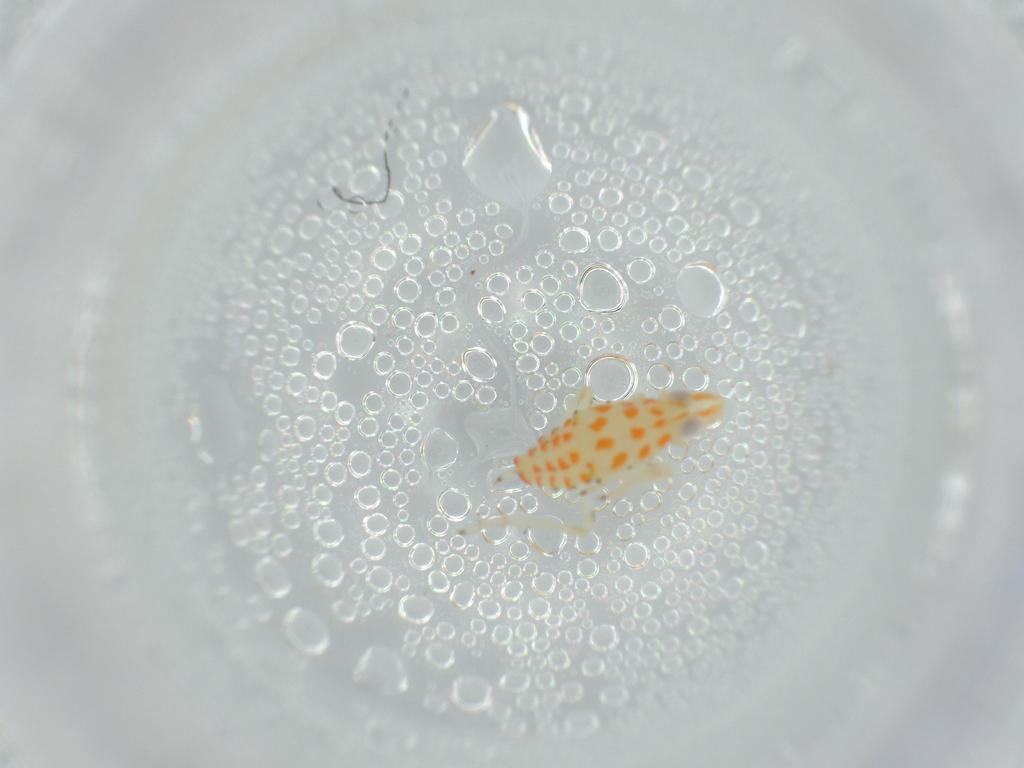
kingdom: Animalia
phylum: Arthropoda
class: Insecta
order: Hemiptera
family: Tropiduchidae
